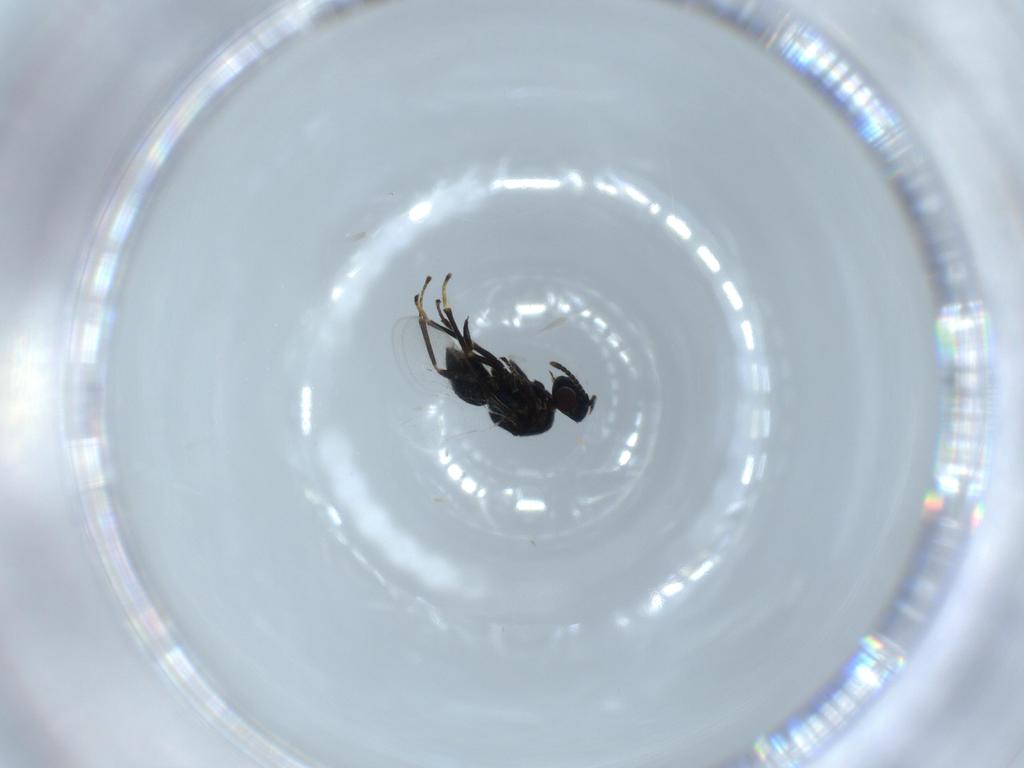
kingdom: Animalia
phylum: Arthropoda
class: Insecta
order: Hymenoptera
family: Encyrtidae
